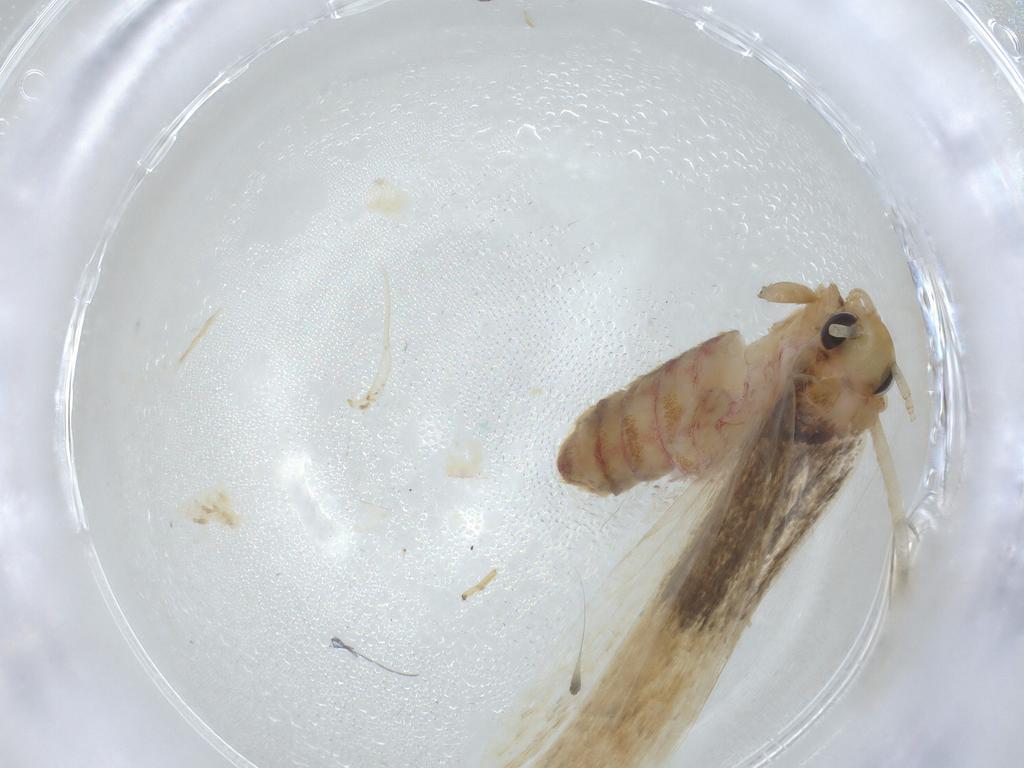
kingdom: Animalia
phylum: Arthropoda
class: Insecta
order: Lepidoptera
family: Lecithoceridae
